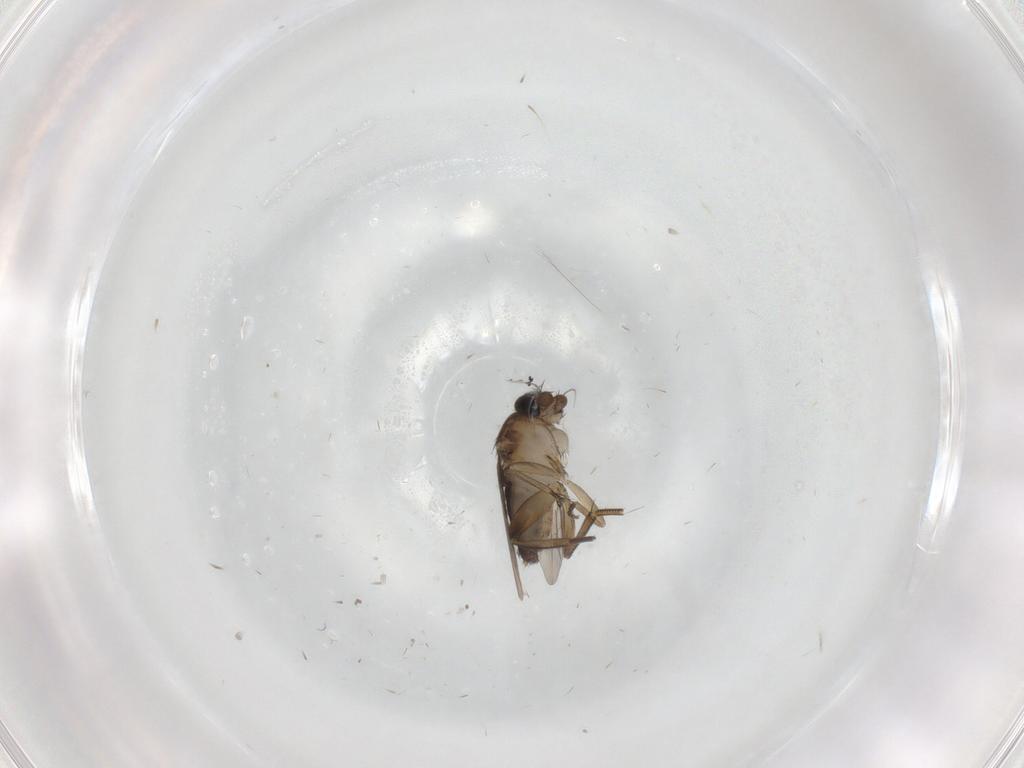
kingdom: Animalia
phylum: Arthropoda
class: Insecta
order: Diptera
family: Phoridae
